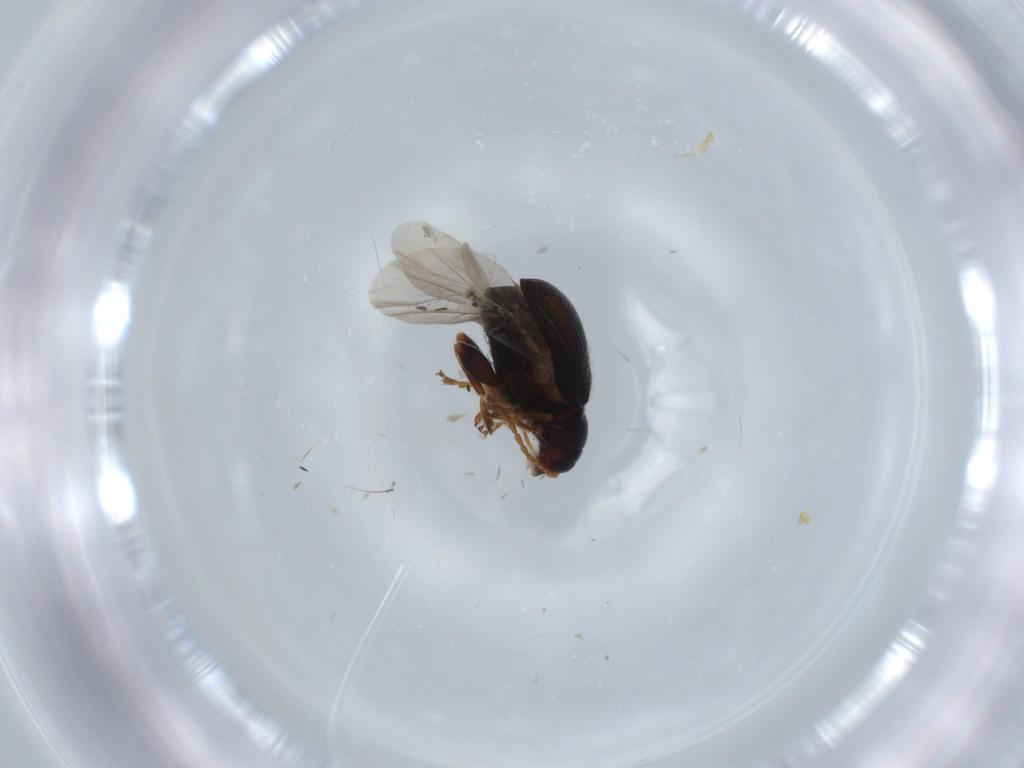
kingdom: Animalia
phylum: Arthropoda
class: Insecta
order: Coleoptera
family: Chrysomelidae
